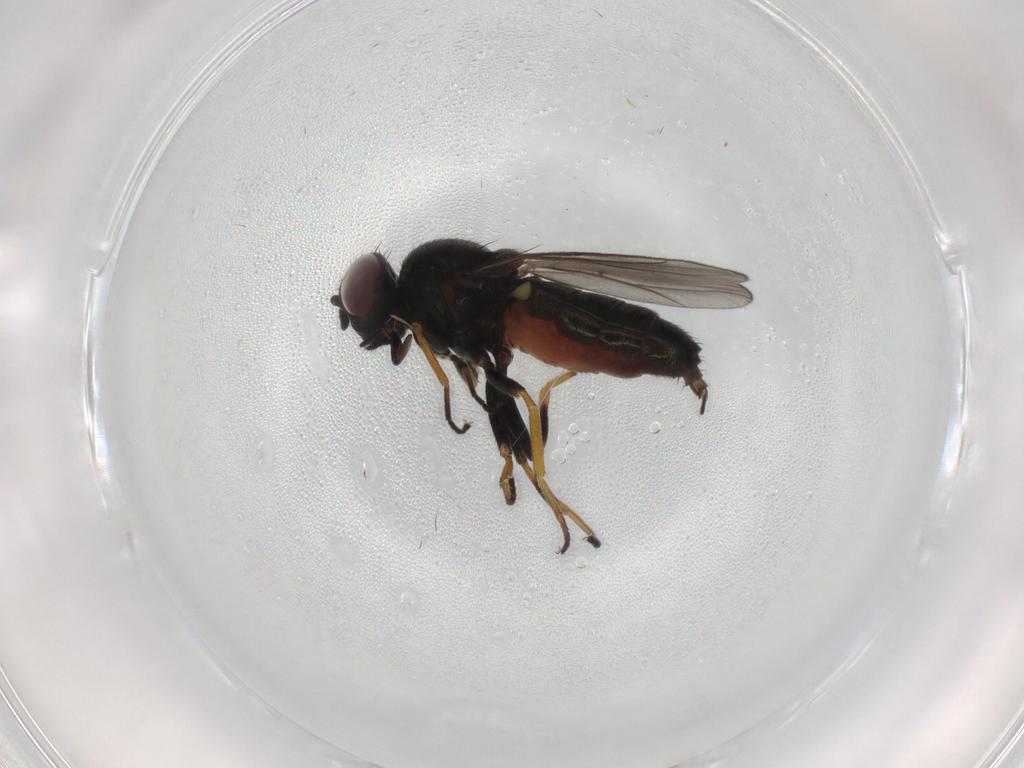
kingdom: Animalia
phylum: Arthropoda
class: Insecta
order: Diptera
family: Chloropidae
